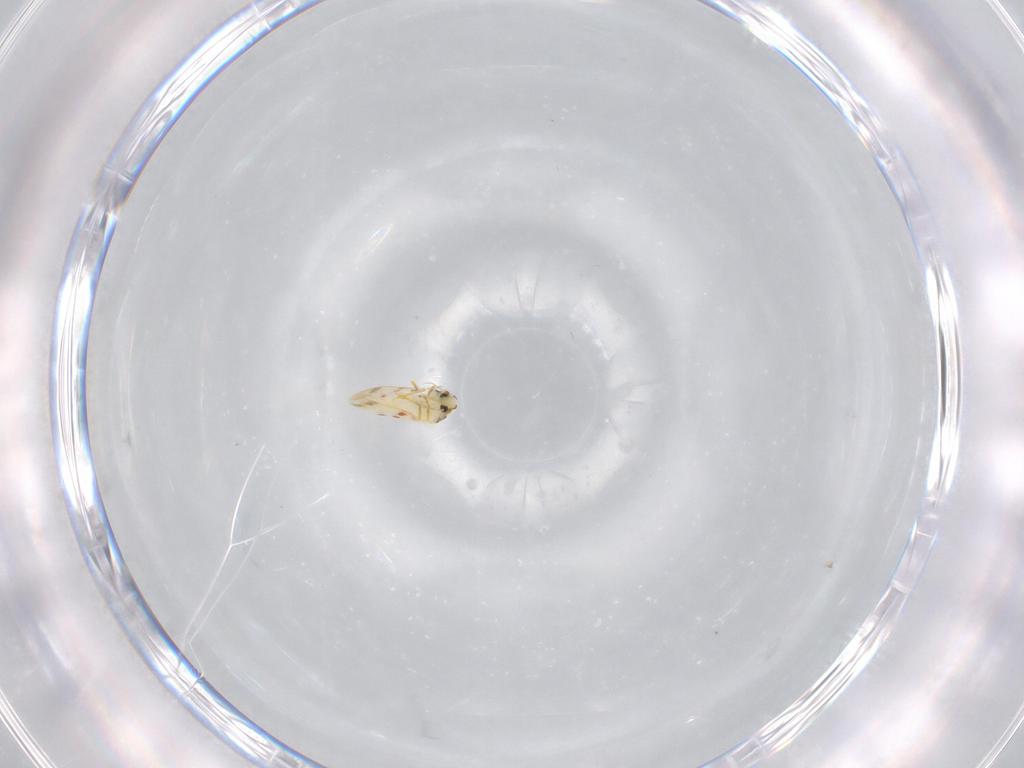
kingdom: Animalia
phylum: Arthropoda
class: Insecta
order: Hemiptera
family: Aleyrodidae
